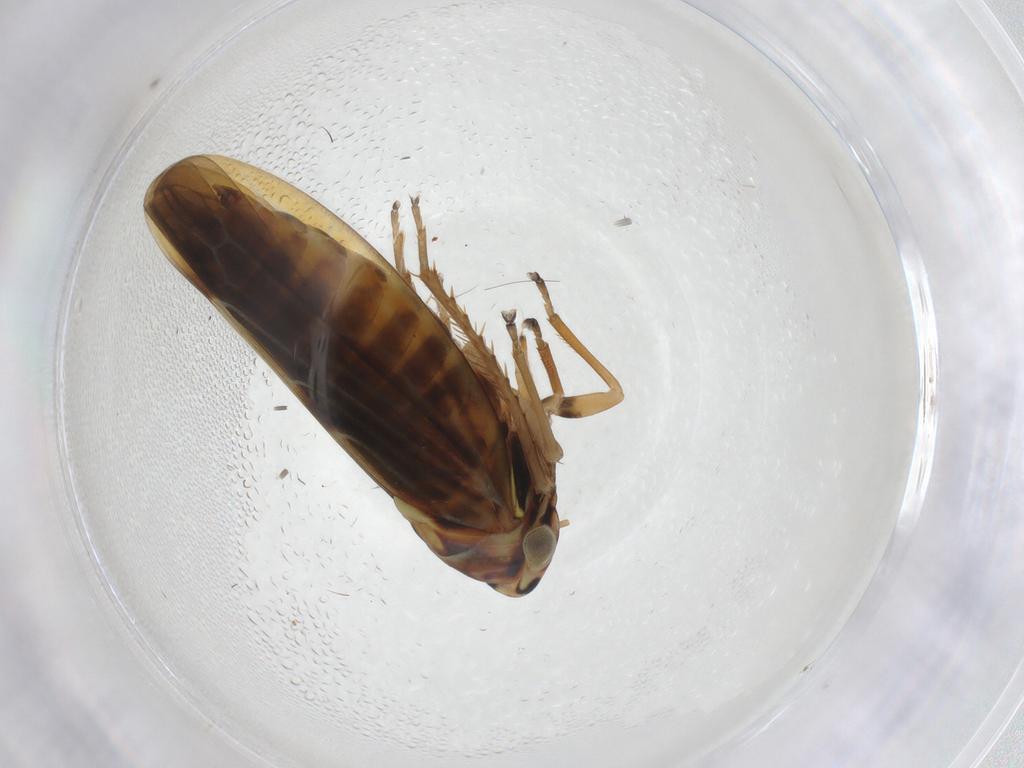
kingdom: Animalia
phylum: Arthropoda
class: Insecta
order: Hemiptera
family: Cicadellidae
